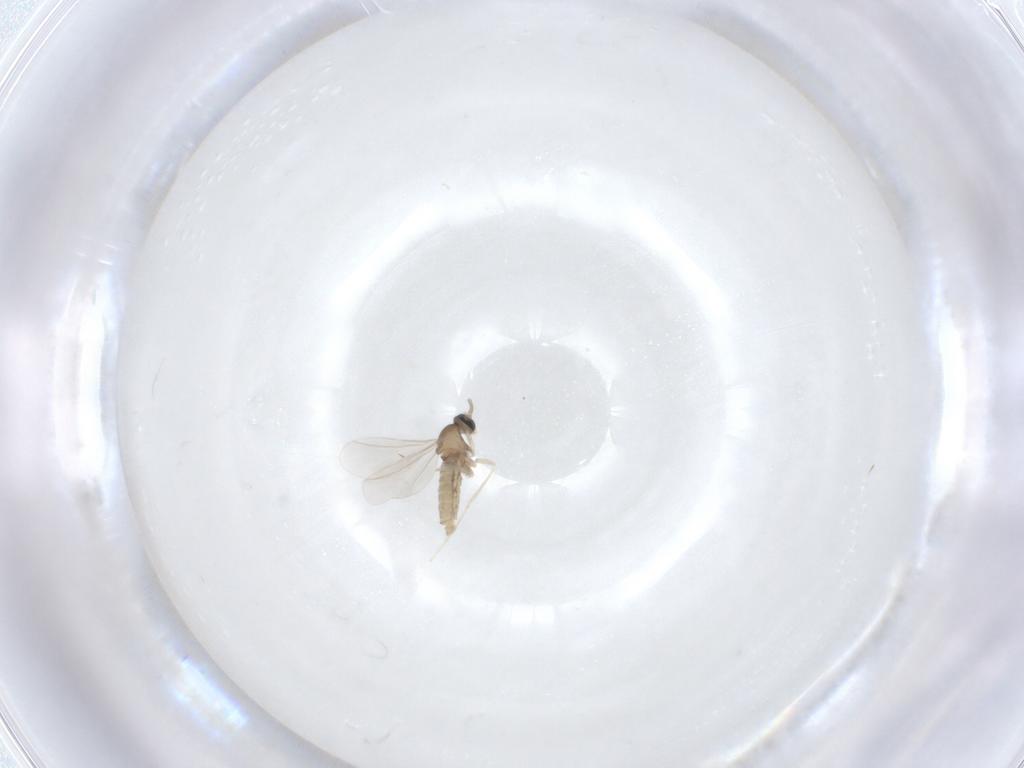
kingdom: Animalia
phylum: Arthropoda
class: Insecta
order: Diptera
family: Cecidomyiidae
